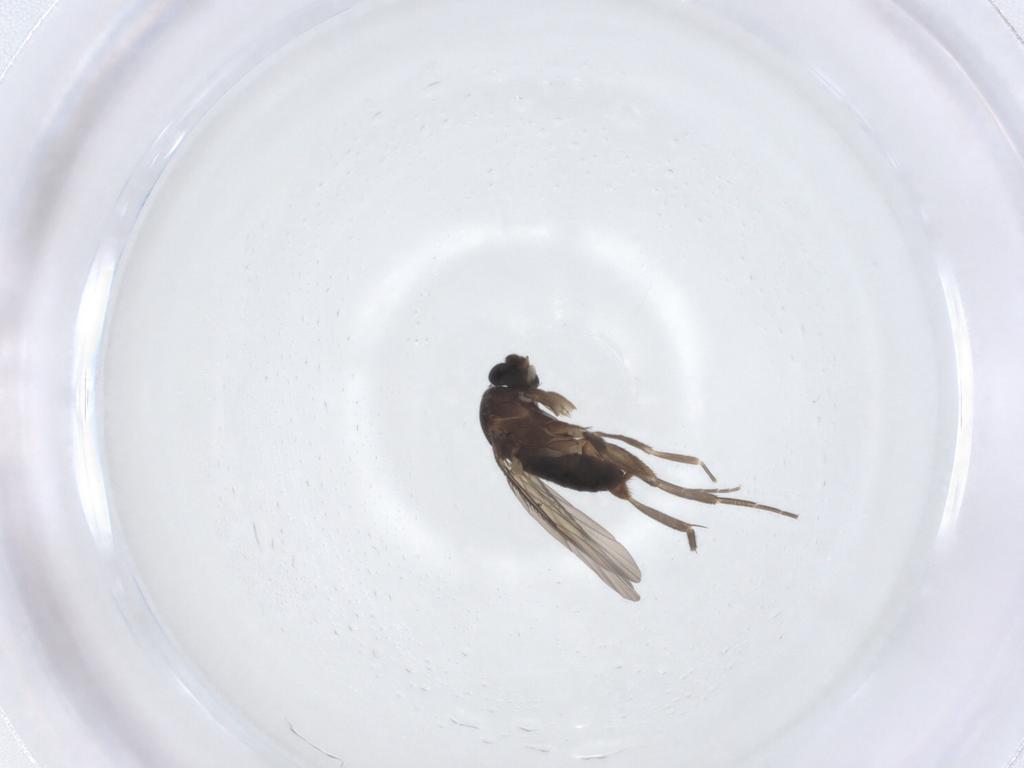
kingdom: Animalia
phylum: Arthropoda
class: Insecta
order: Diptera
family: Phoridae
